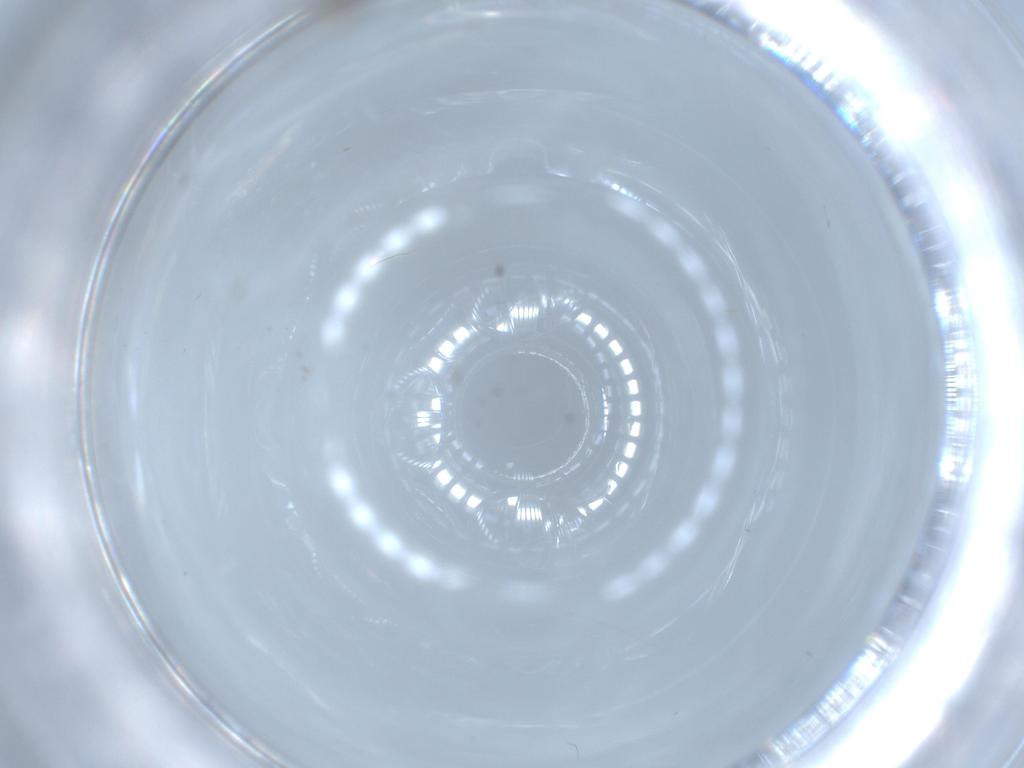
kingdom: Animalia
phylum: Arthropoda
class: Insecta
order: Diptera
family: Cecidomyiidae
